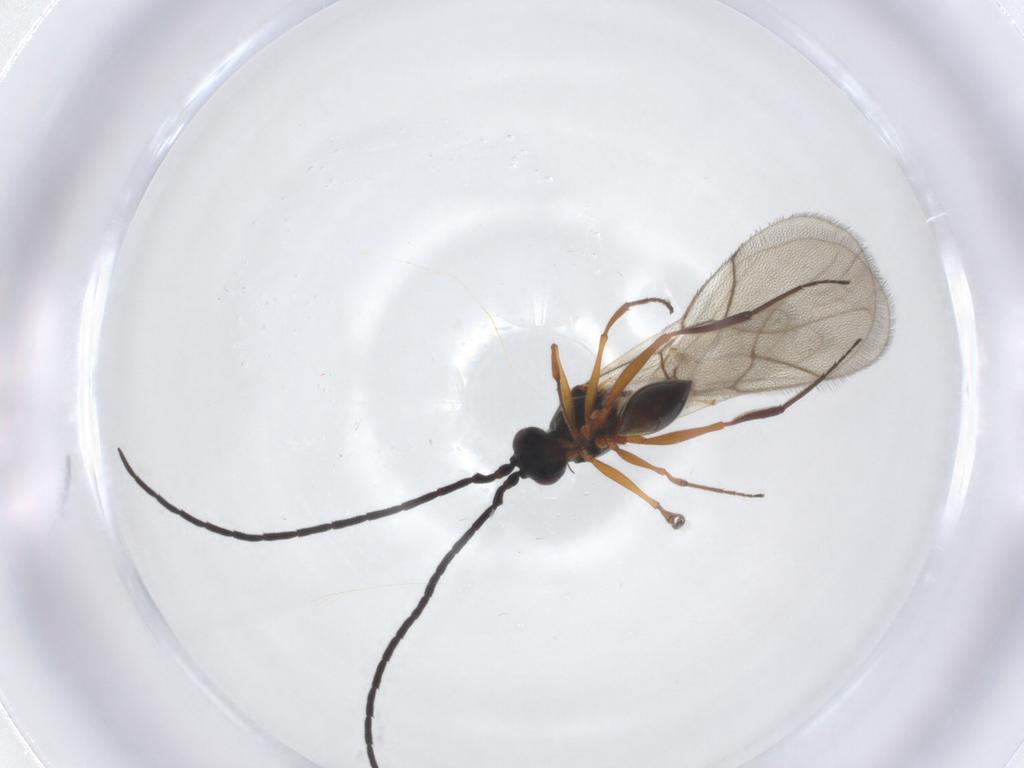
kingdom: Animalia
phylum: Arthropoda
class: Insecta
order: Hymenoptera
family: Figitidae
